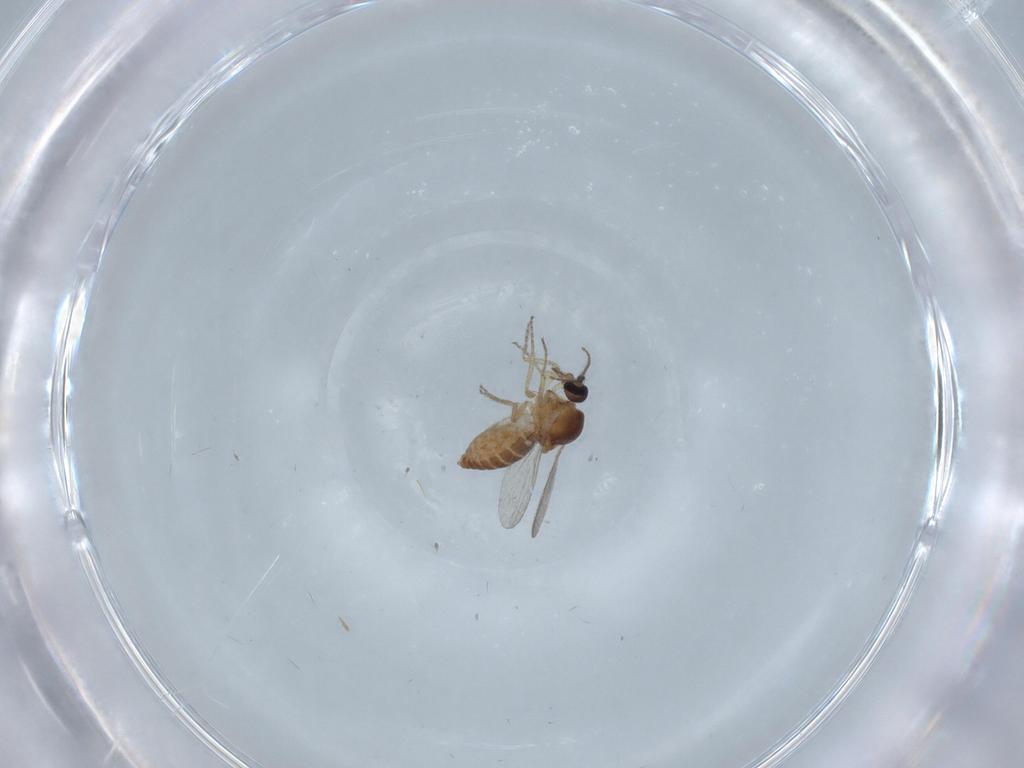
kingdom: Animalia
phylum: Arthropoda
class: Insecta
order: Diptera
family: Ceratopogonidae
